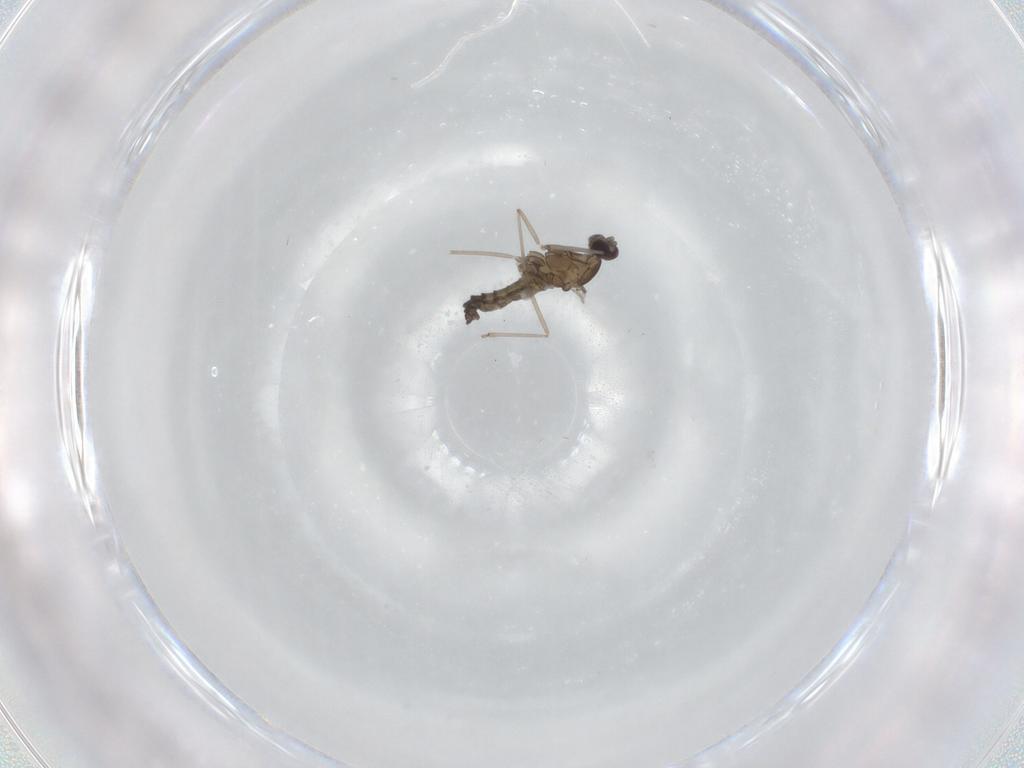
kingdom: Animalia
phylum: Arthropoda
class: Insecta
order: Diptera
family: Cecidomyiidae
